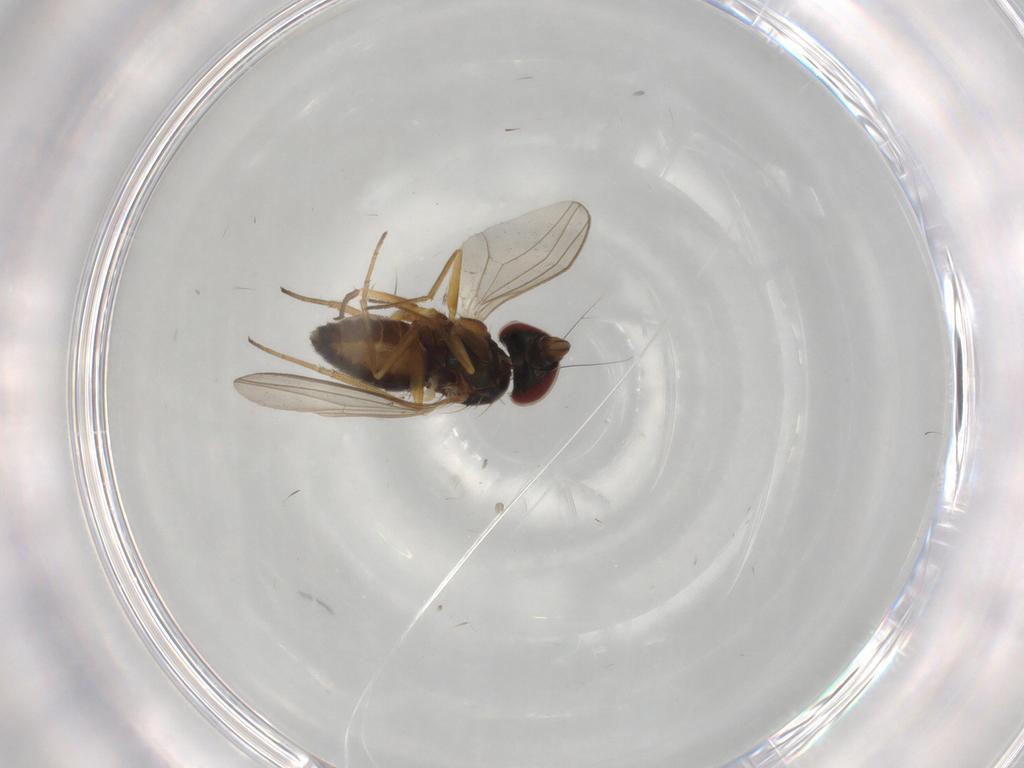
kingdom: Animalia
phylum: Arthropoda
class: Insecta
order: Diptera
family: Dolichopodidae
